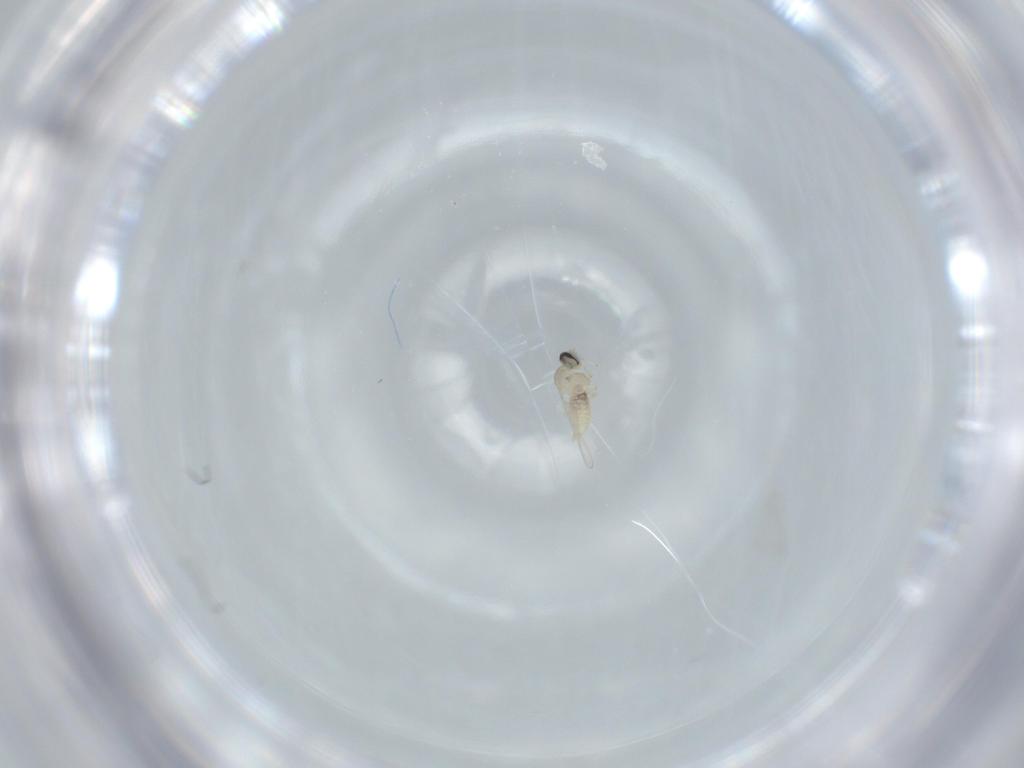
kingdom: Animalia
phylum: Arthropoda
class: Insecta
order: Diptera
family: Cecidomyiidae
